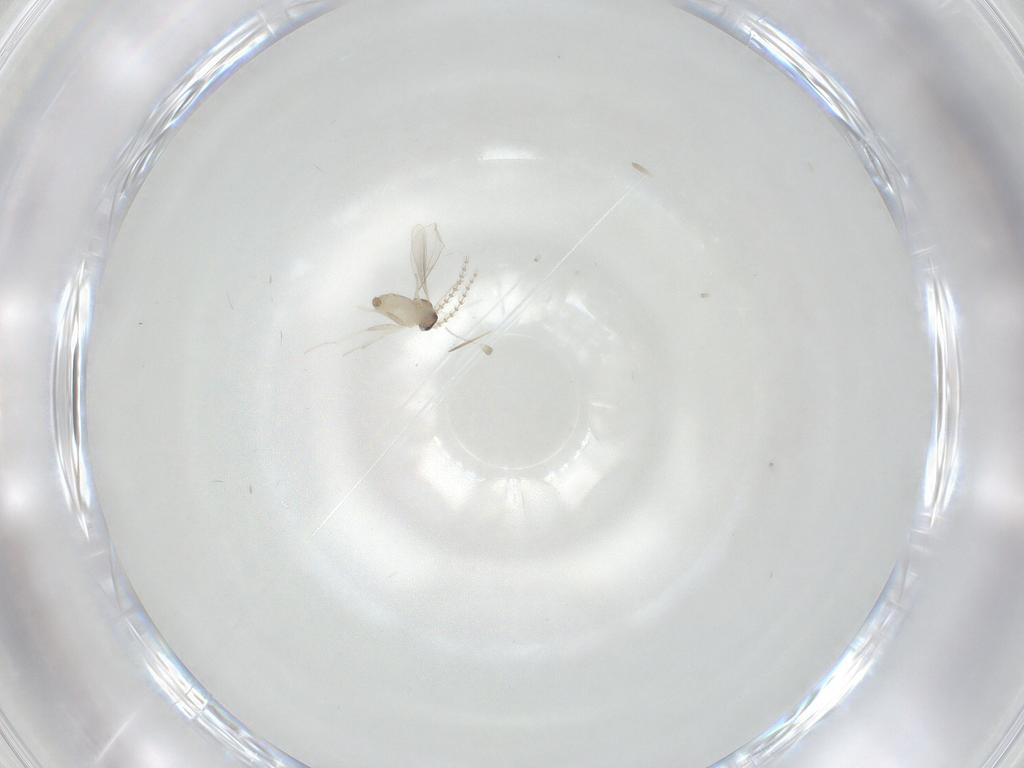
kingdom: Animalia
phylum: Arthropoda
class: Insecta
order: Diptera
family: Cecidomyiidae
